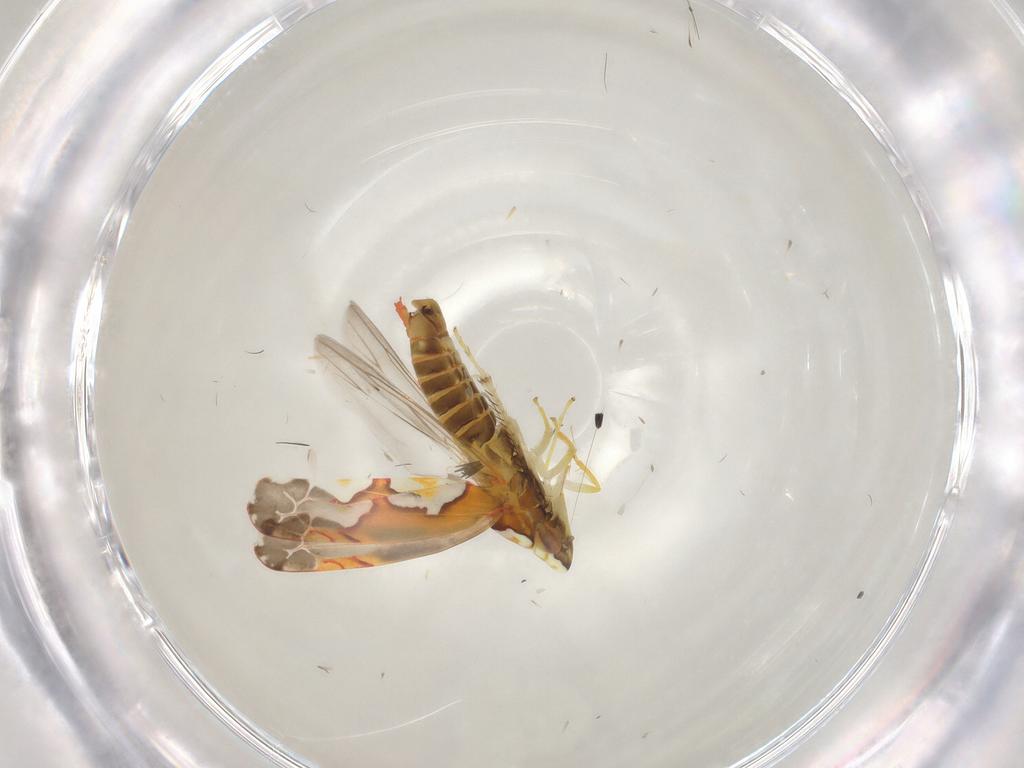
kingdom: Animalia
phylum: Arthropoda
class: Insecta
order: Hemiptera
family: Cicadellidae
